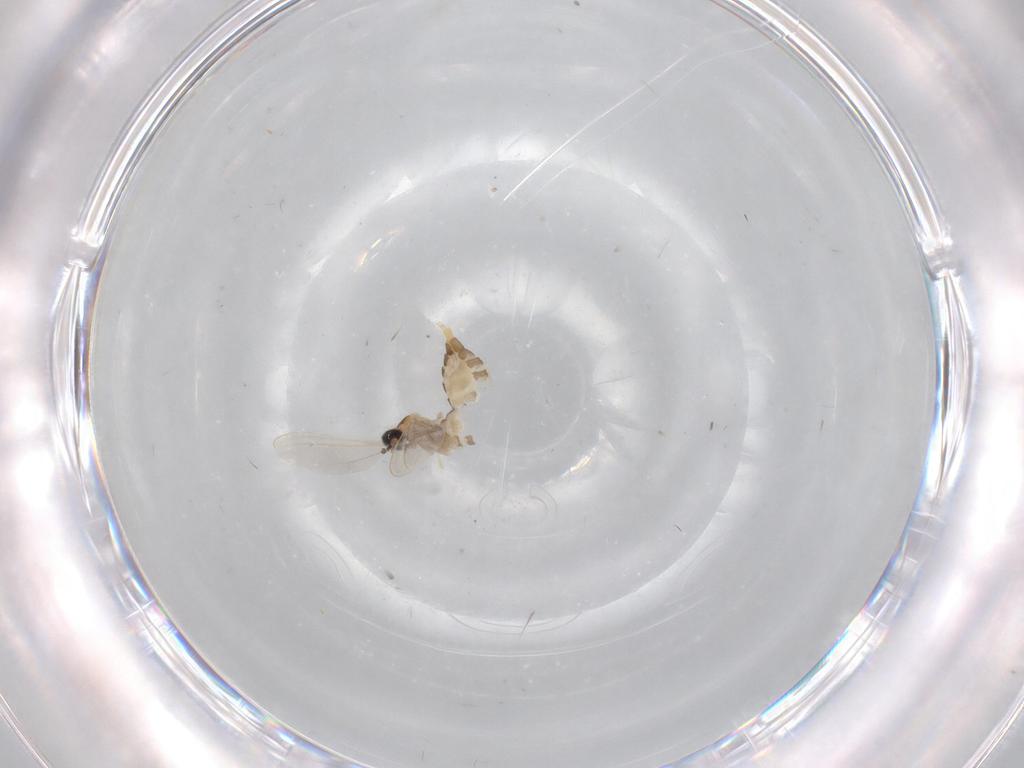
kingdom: Animalia
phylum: Arthropoda
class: Insecta
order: Diptera
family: Cecidomyiidae
